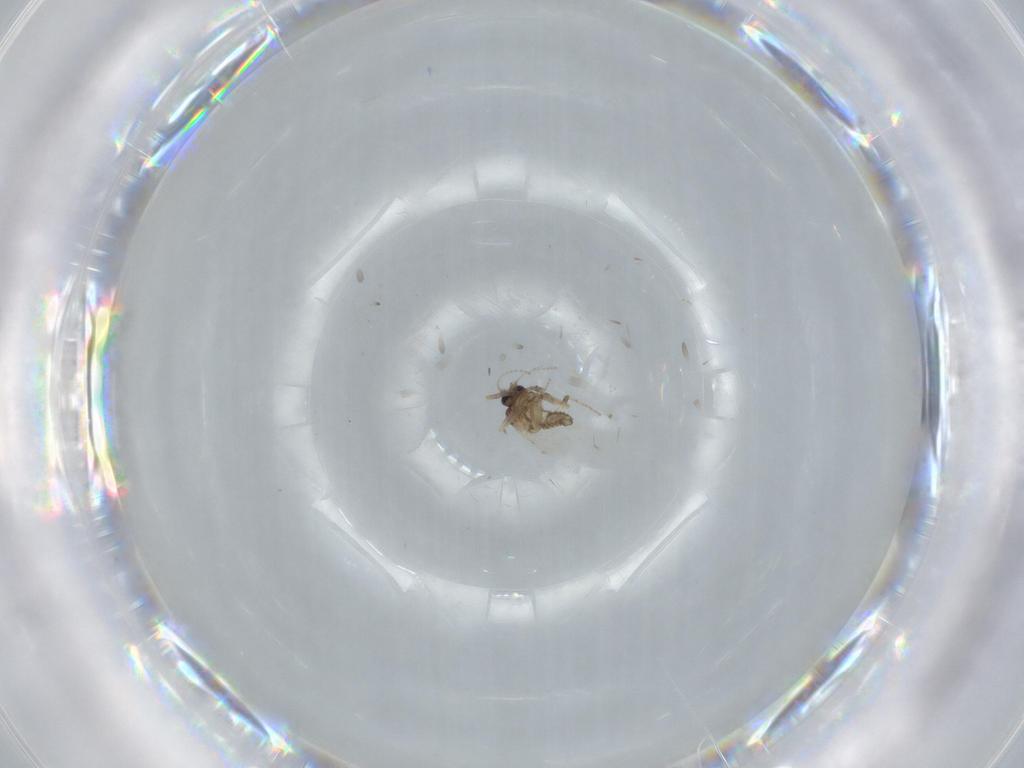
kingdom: Animalia
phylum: Arthropoda
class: Insecta
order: Diptera
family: Ceratopogonidae
